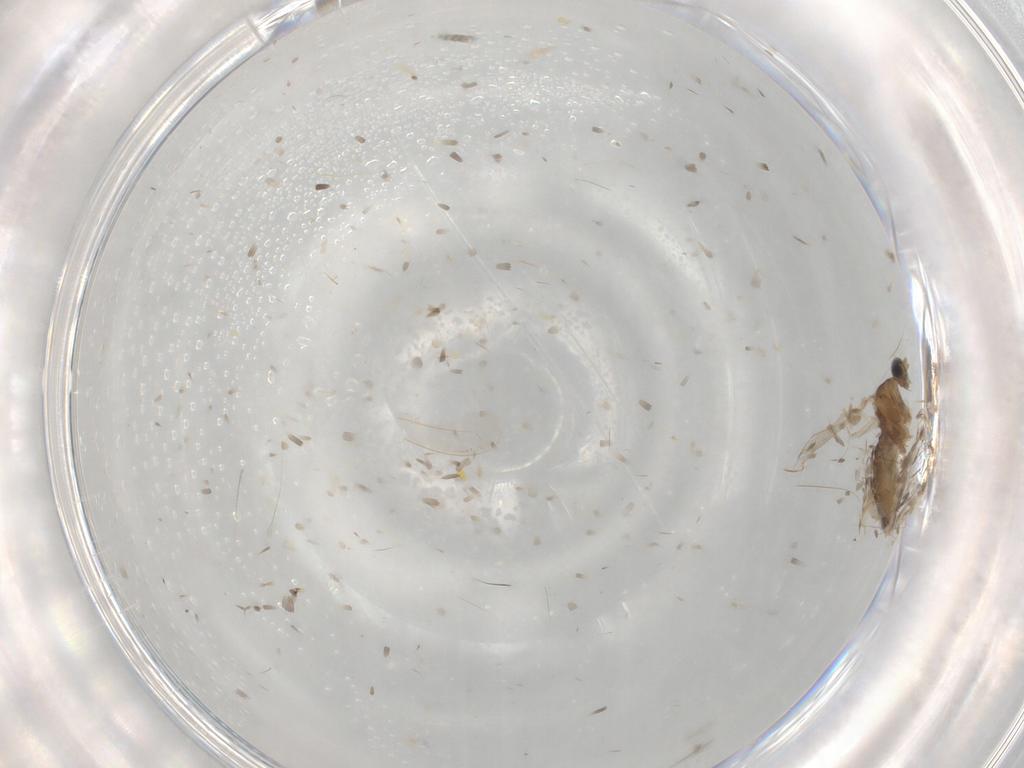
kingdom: Animalia
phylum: Arthropoda
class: Insecta
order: Diptera
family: Cecidomyiidae
